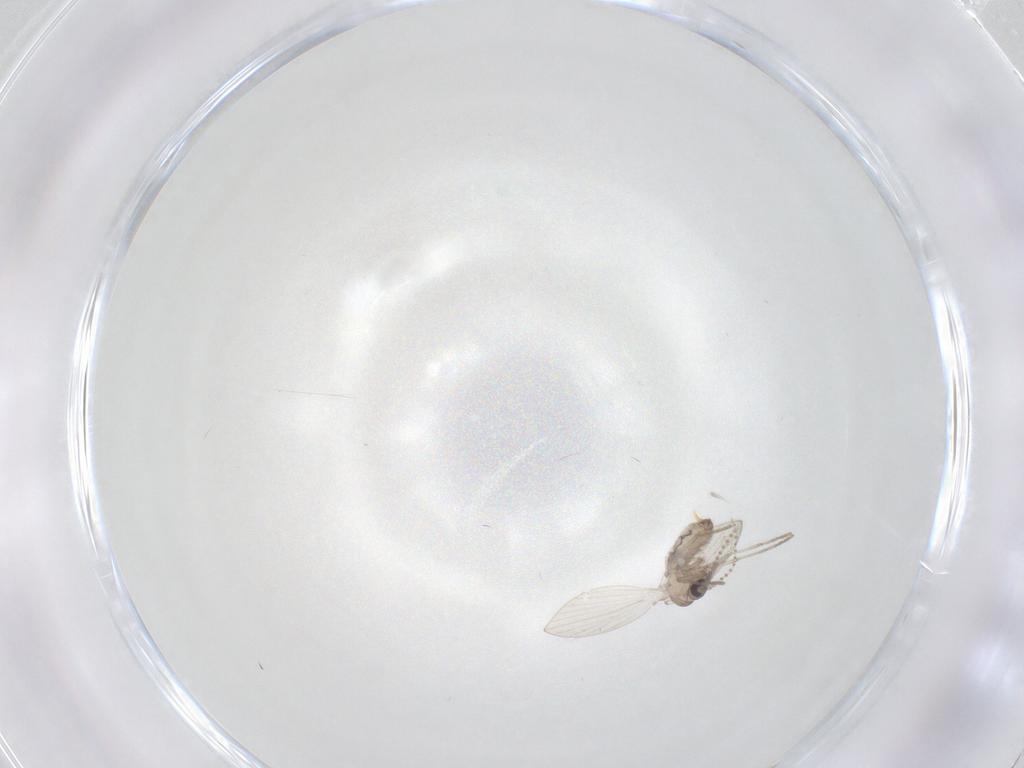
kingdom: Animalia
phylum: Arthropoda
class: Insecta
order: Diptera
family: Psychodidae
